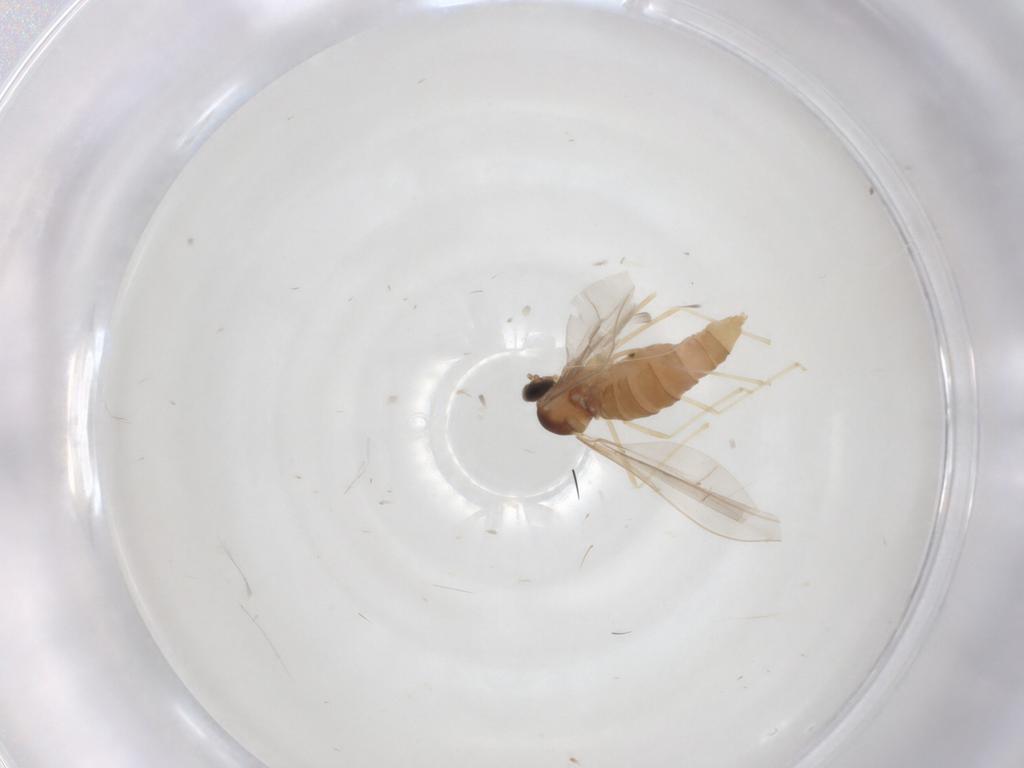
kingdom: Animalia
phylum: Arthropoda
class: Insecta
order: Diptera
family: Cecidomyiidae
